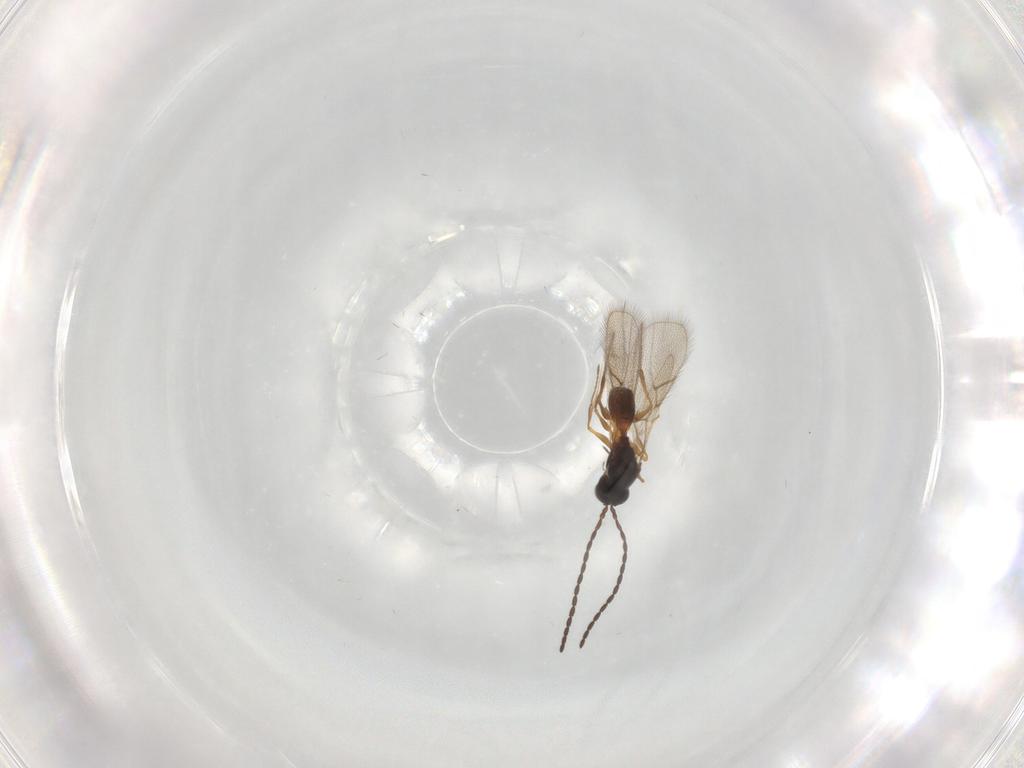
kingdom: Animalia
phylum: Arthropoda
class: Insecta
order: Hymenoptera
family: Figitidae
